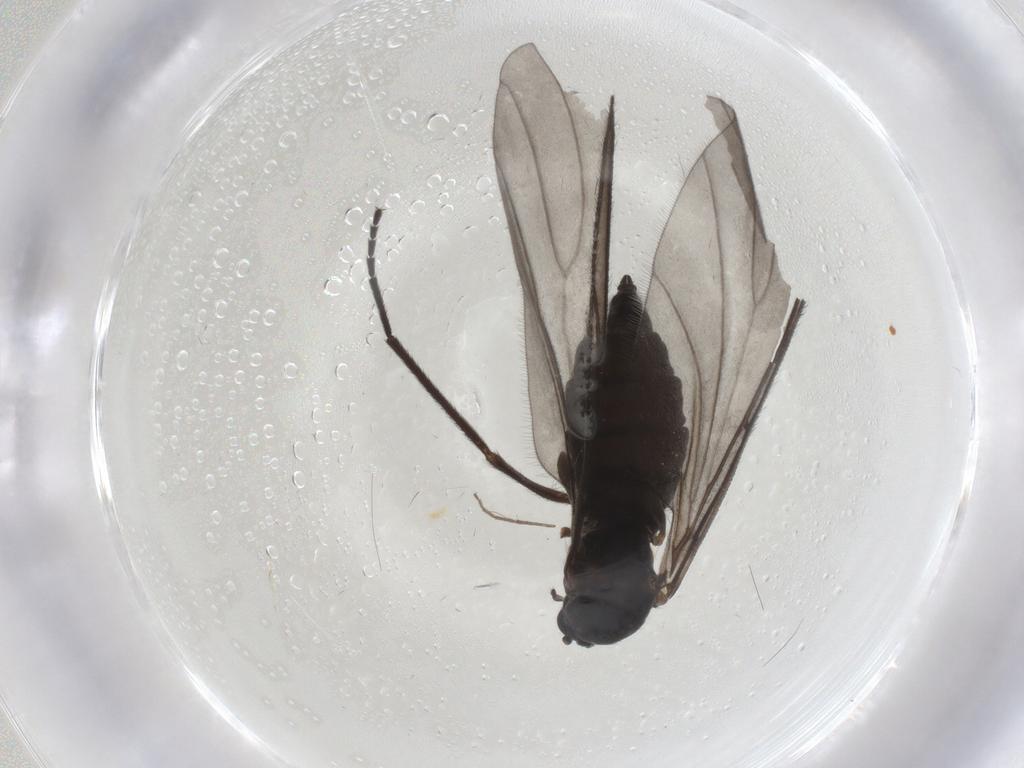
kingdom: Animalia
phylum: Arthropoda
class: Insecta
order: Diptera
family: Sciaridae
